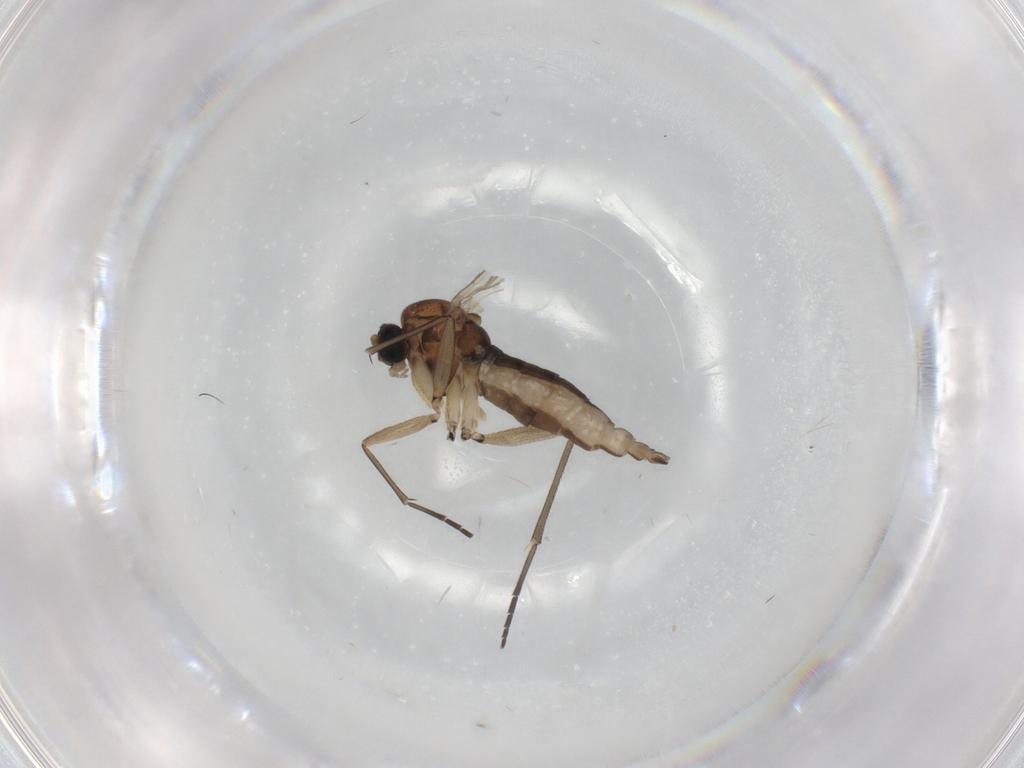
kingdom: Animalia
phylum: Arthropoda
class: Insecta
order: Diptera
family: Sciaridae
